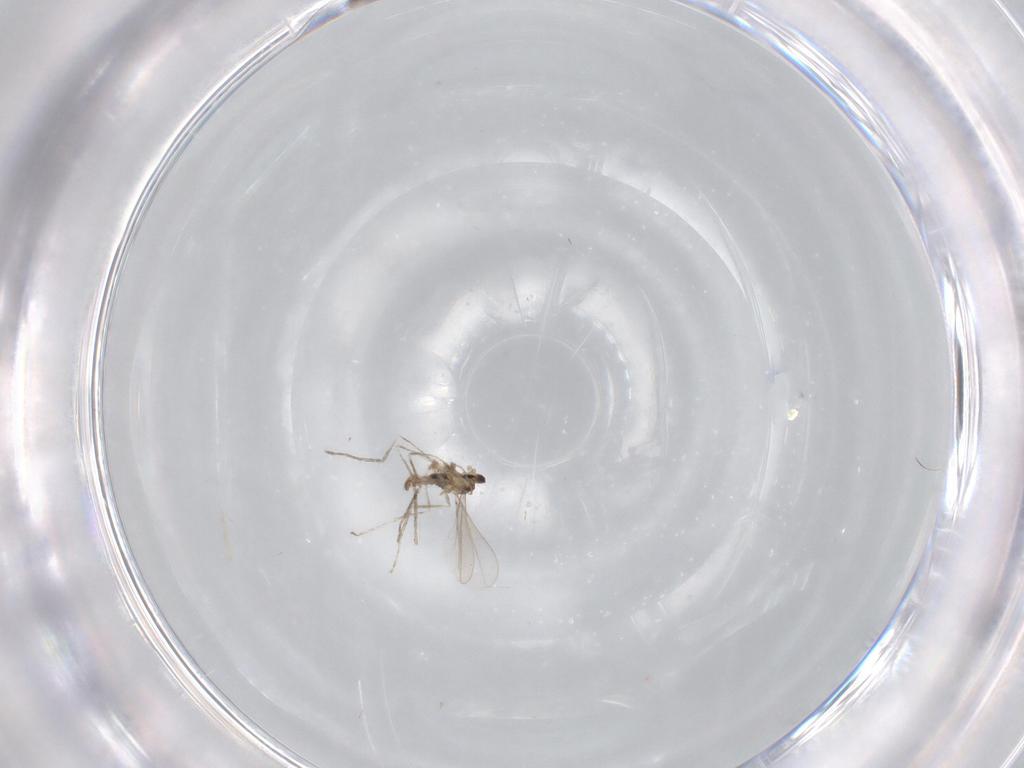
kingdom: Animalia
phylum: Arthropoda
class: Insecta
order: Diptera
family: Cecidomyiidae
